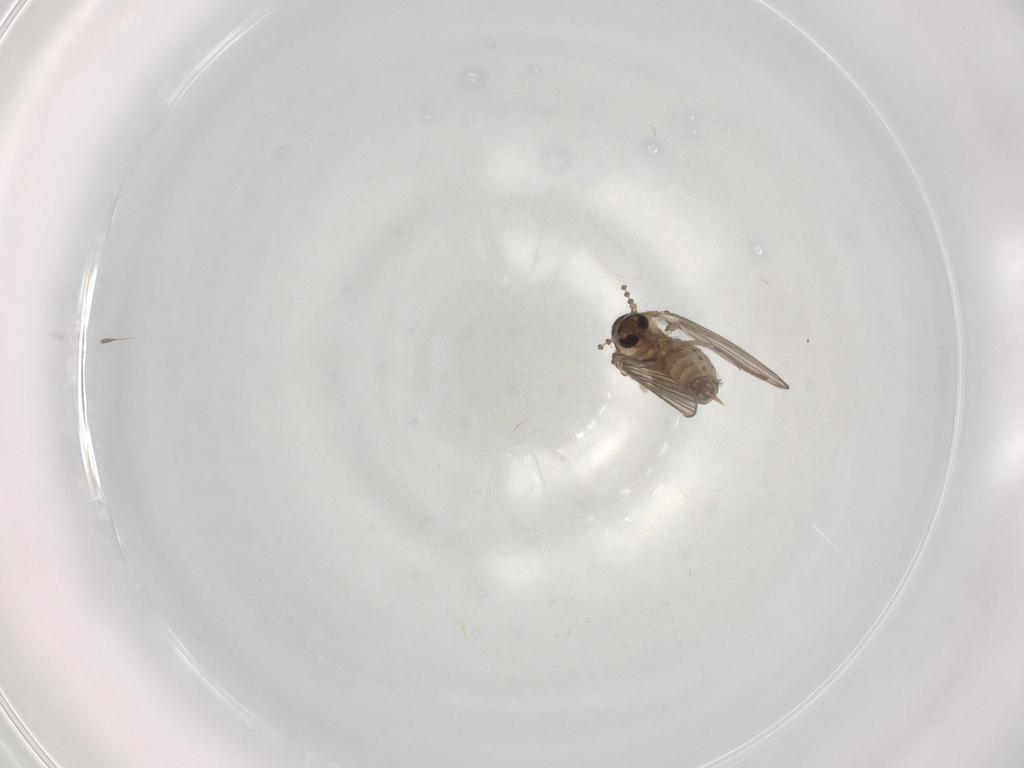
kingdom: Animalia
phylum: Arthropoda
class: Insecta
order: Diptera
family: Psychodidae
